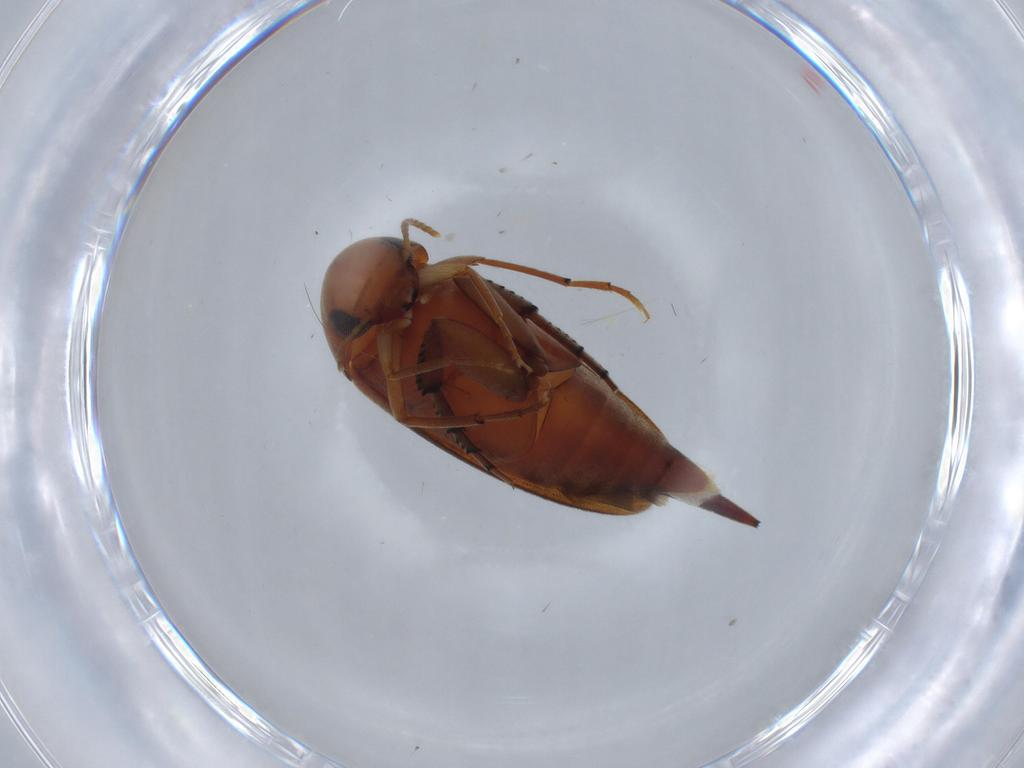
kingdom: Animalia
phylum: Arthropoda
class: Insecta
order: Coleoptera
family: Mordellidae
